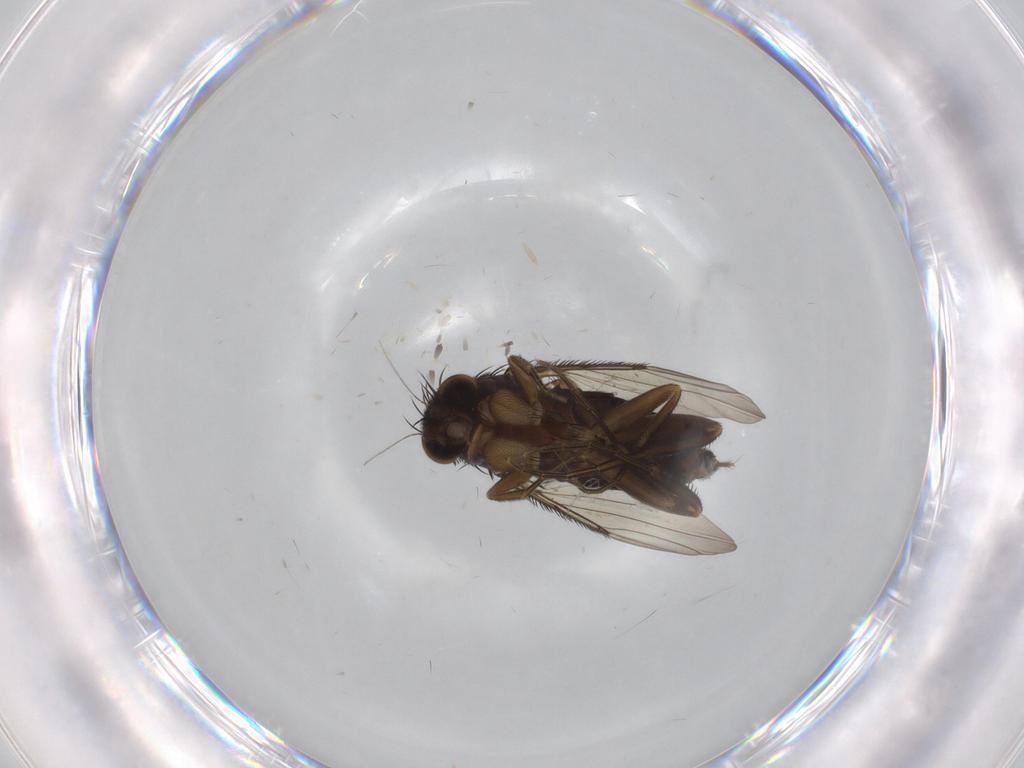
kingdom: Animalia
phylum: Arthropoda
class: Insecta
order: Diptera
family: Phoridae
